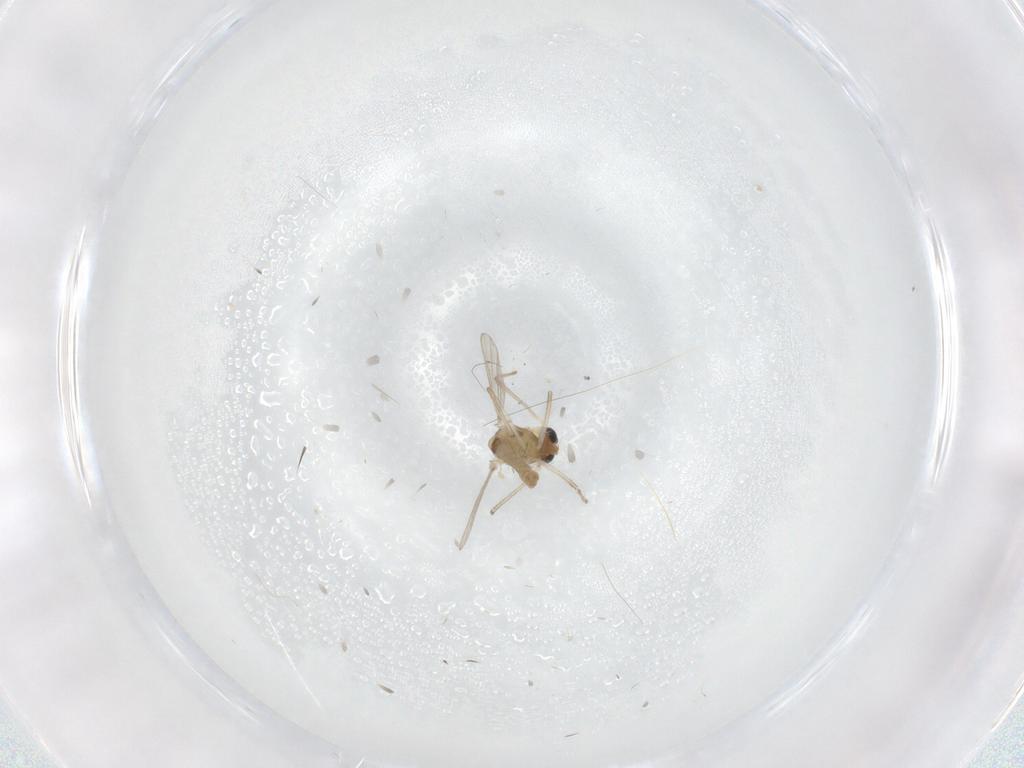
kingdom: Animalia
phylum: Arthropoda
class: Insecta
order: Diptera
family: Chironomidae
